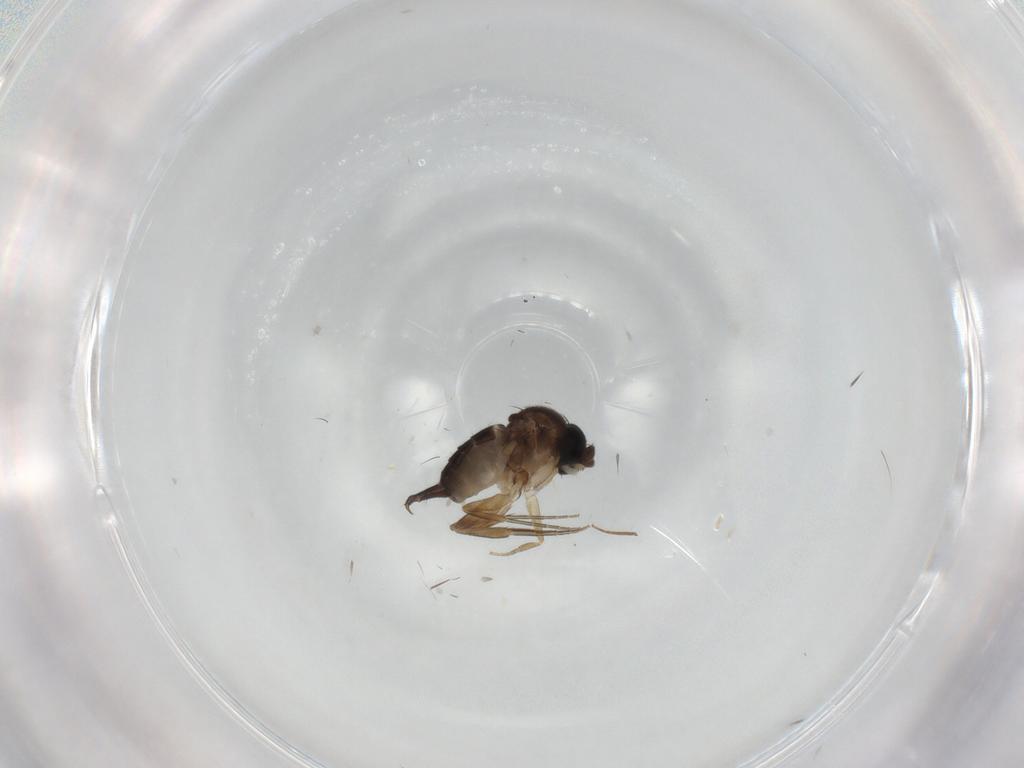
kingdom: Animalia
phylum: Arthropoda
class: Insecta
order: Diptera
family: Phoridae
